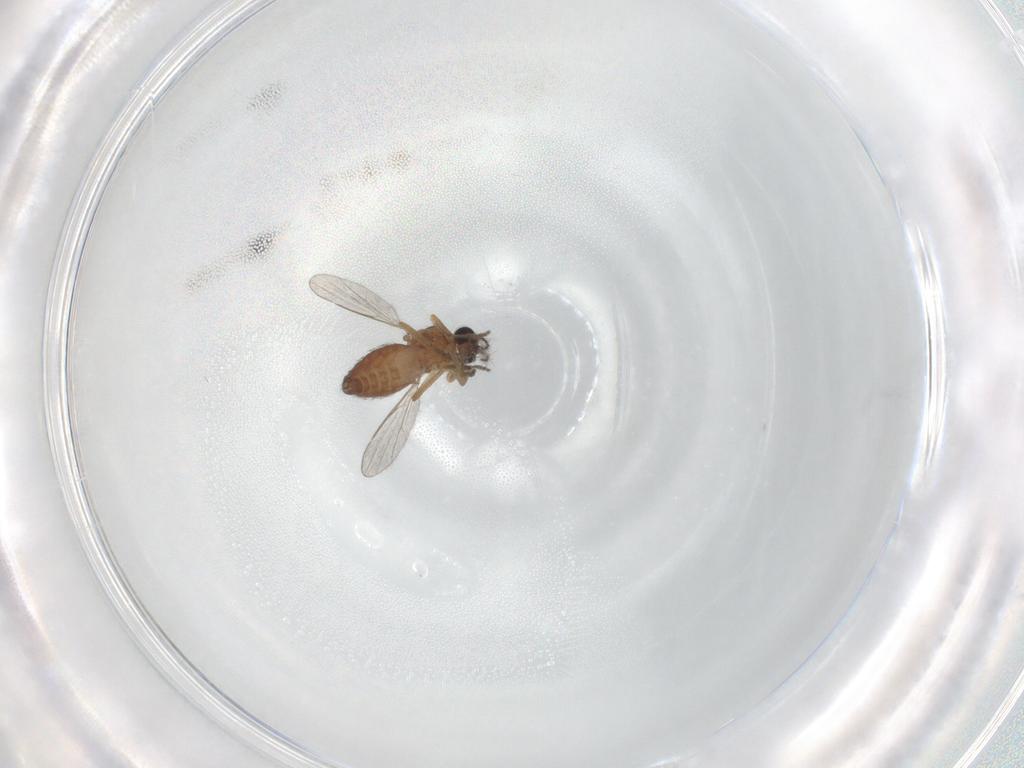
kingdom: Animalia
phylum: Arthropoda
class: Insecta
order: Diptera
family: Ceratopogonidae
